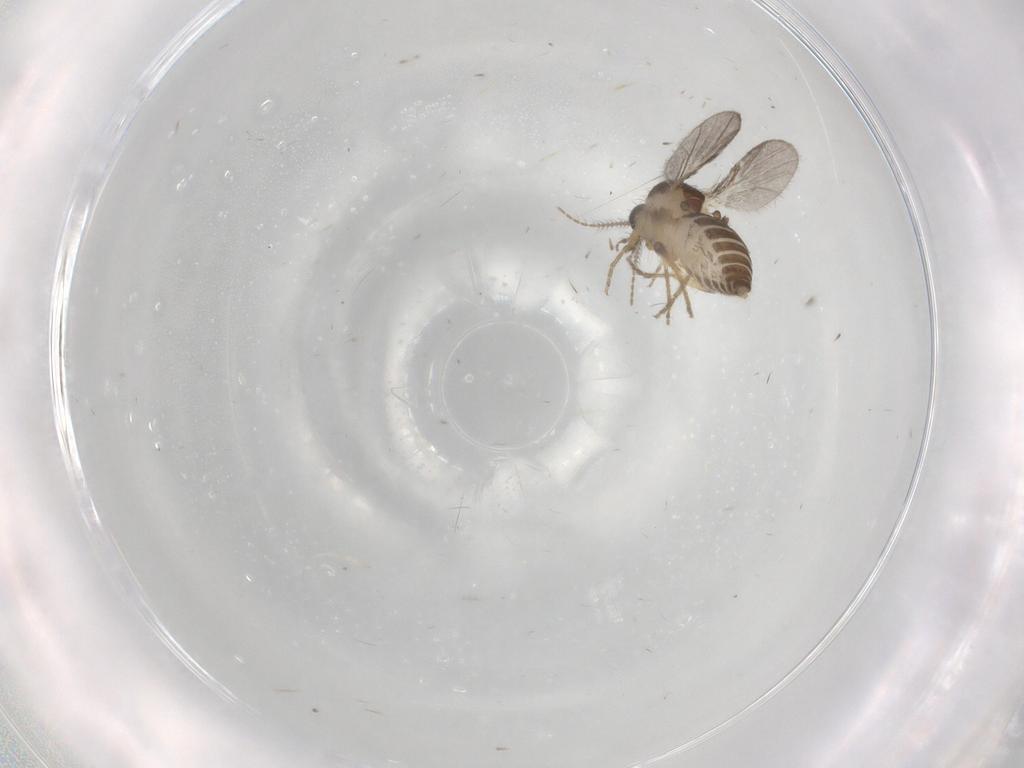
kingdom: Animalia
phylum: Arthropoda
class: Insecta
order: Diptera
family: Ceratopogonidae
